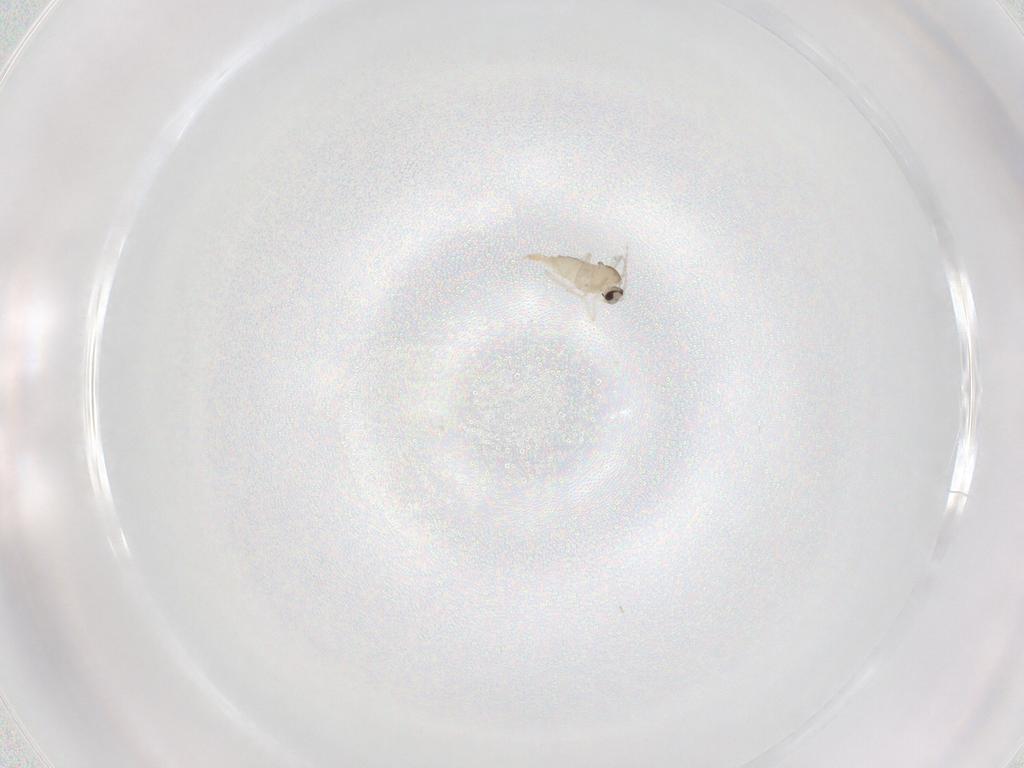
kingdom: Animalia
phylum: Arthropoda
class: Insecta
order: Diptera
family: Cecidomyiidae
